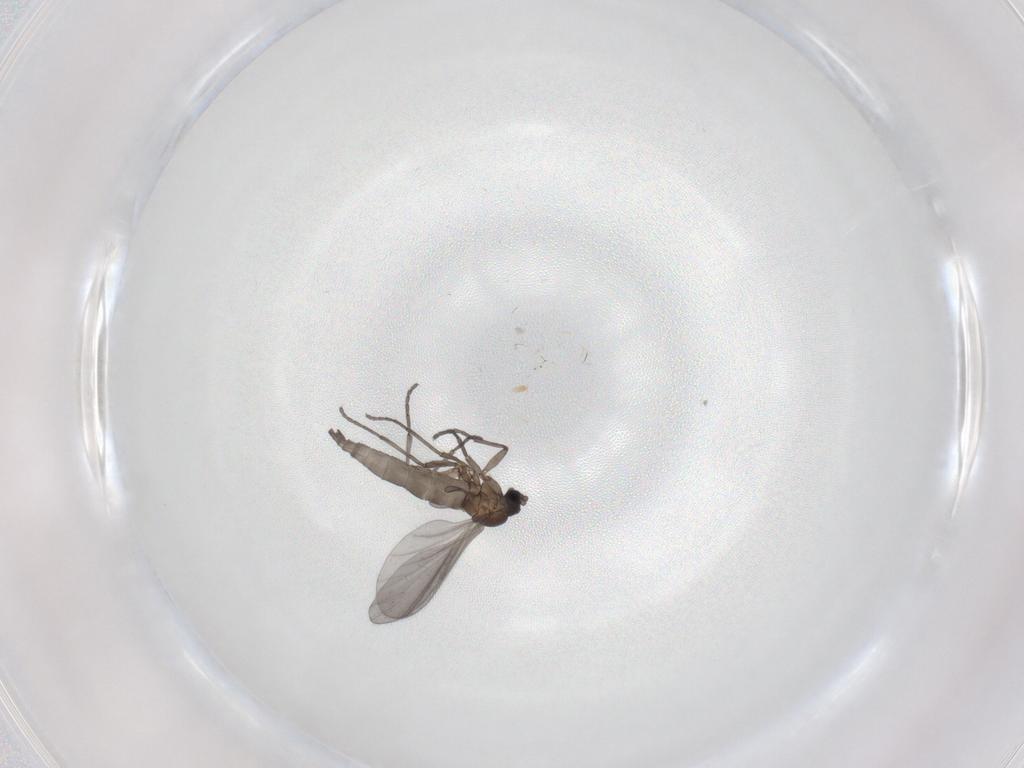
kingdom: Animalia
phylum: Arthropoda
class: Insecta
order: Diptera
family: Sciaridae
